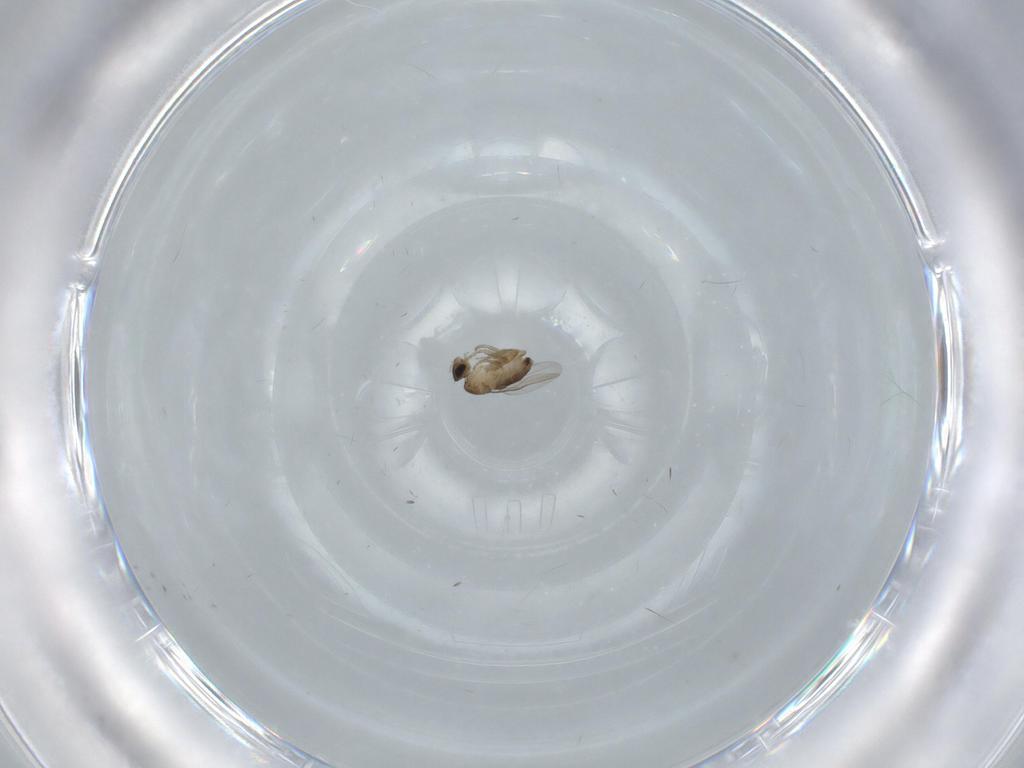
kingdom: Animalia
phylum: Arthropoda
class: Insecta
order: Diptera
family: Phoridae
